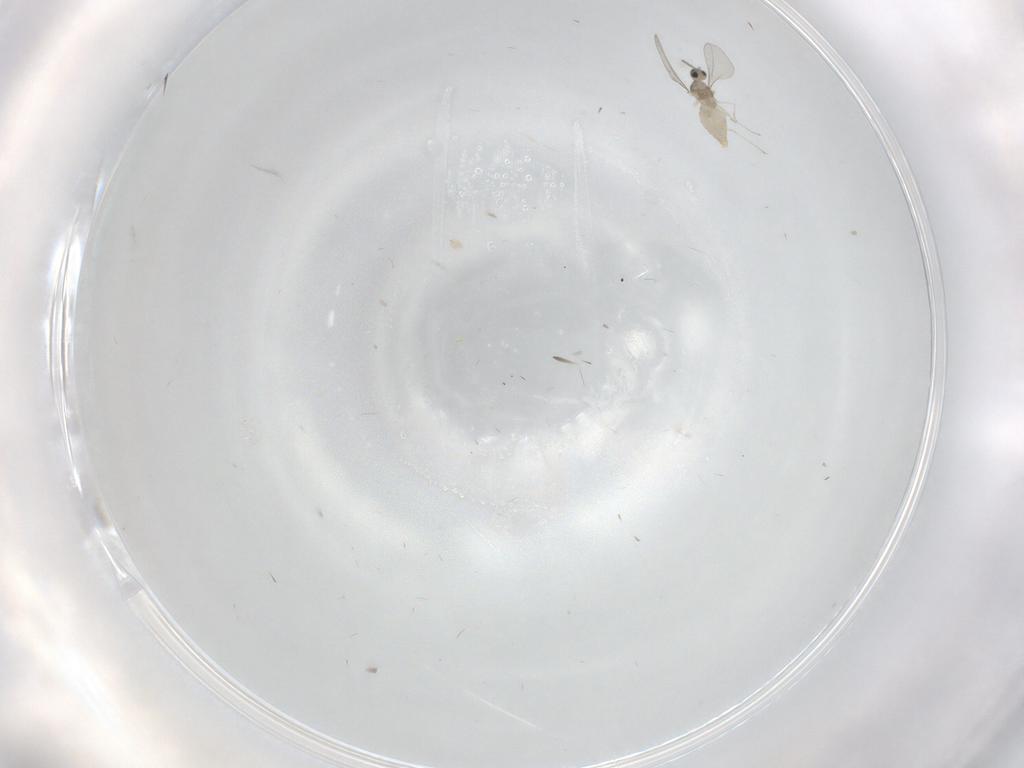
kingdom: Animalia
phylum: Arthropoda
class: Insecta
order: Diptera
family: Cecidomyiidae
